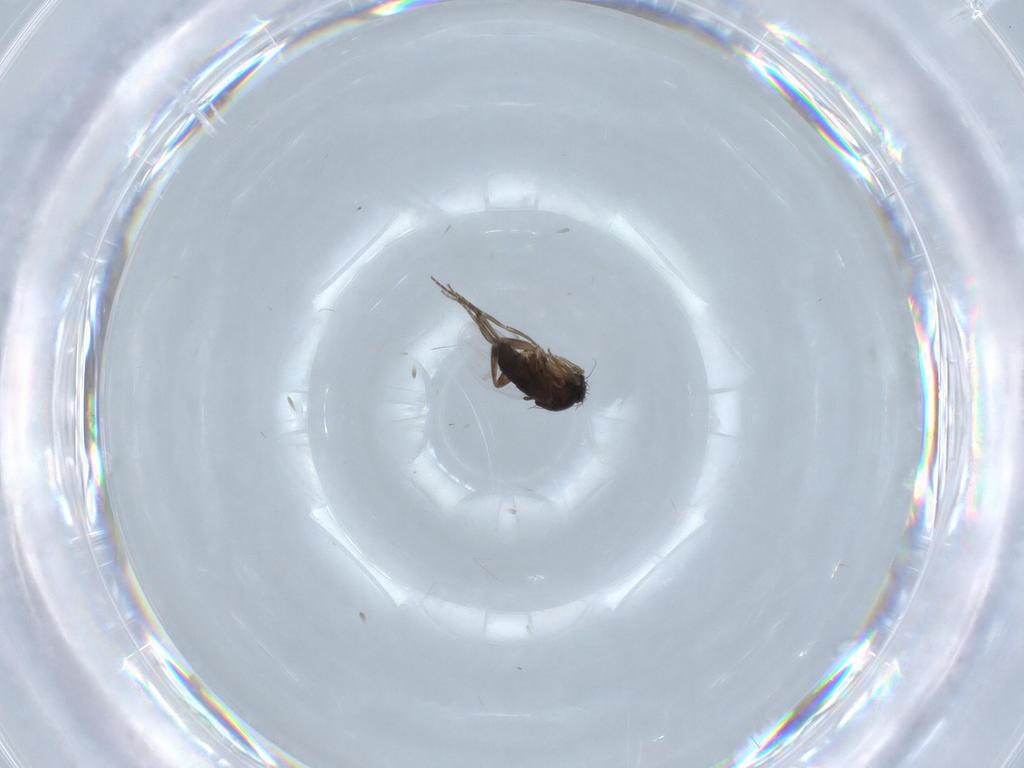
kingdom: Animalia
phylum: Arthropoda
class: Insecta
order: Diptera
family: Phoridae
